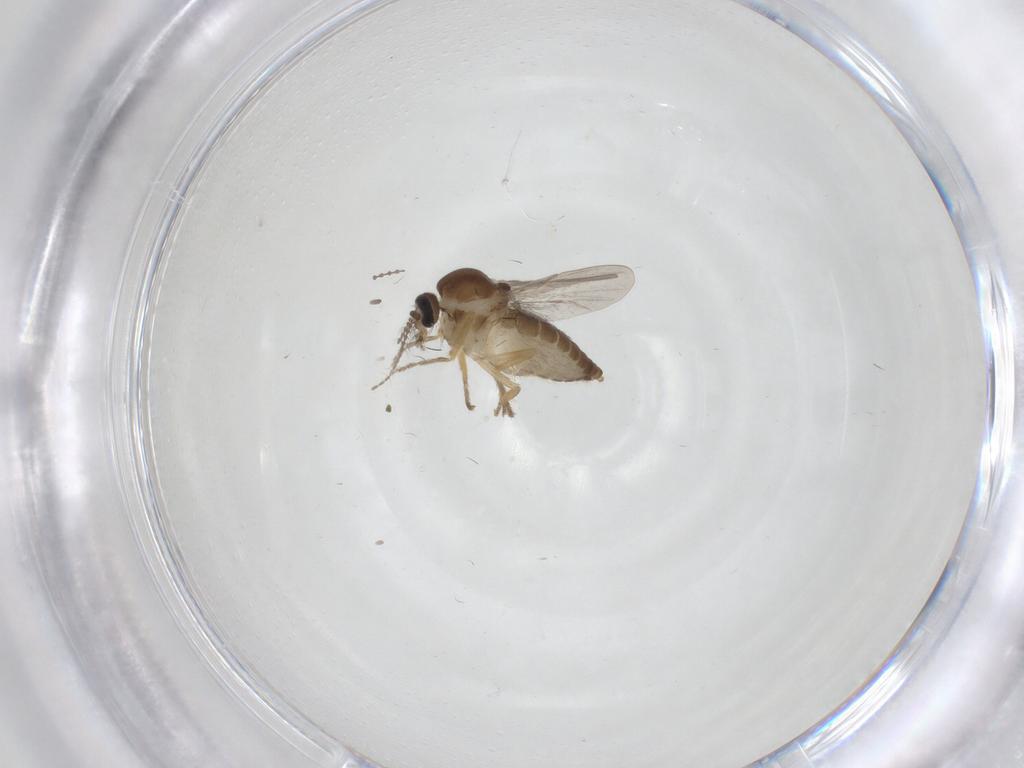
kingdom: Animalia
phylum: Arthropoda
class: Insecta
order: Diptera
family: Ceratopogonidae
